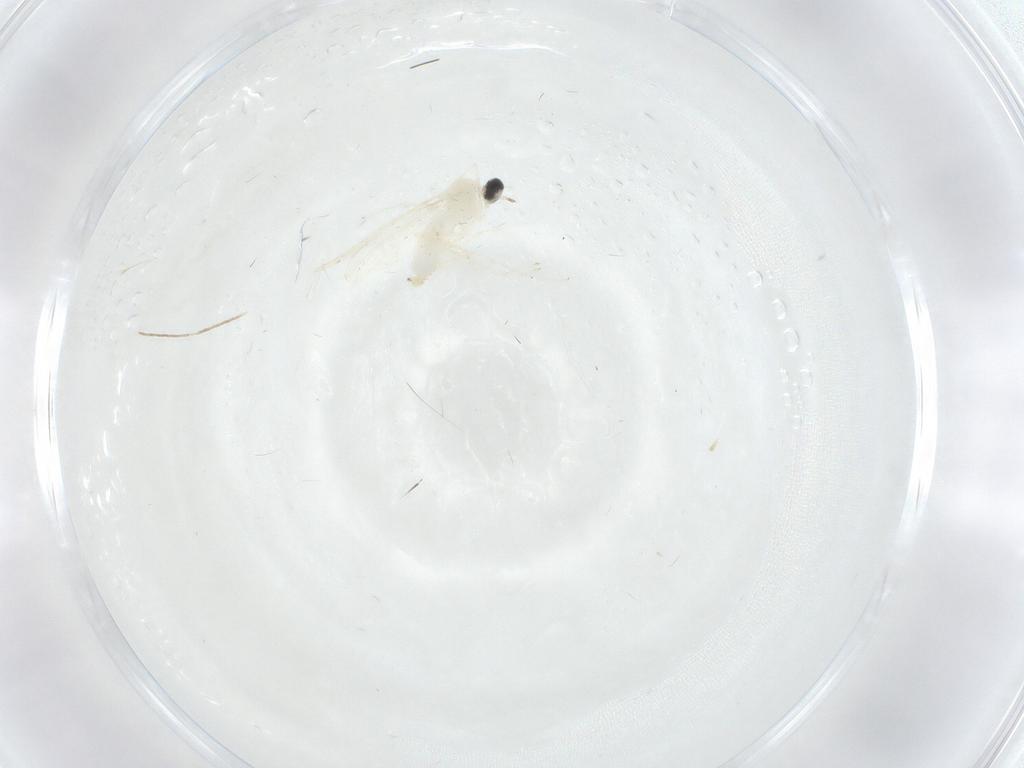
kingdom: Animalia
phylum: Arthropoda
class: Insecta
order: Diptera
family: Cecidomyiidae
